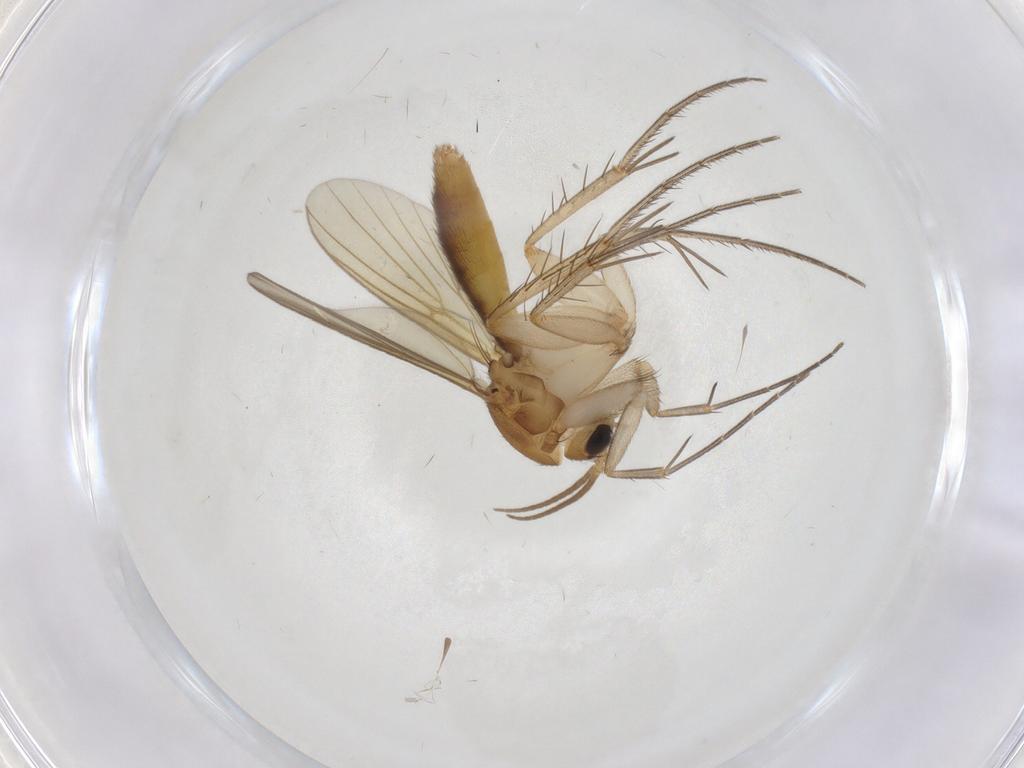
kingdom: Animalia
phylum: Arthropoda
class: Insecta
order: Diptera
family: Mycetophilidae
